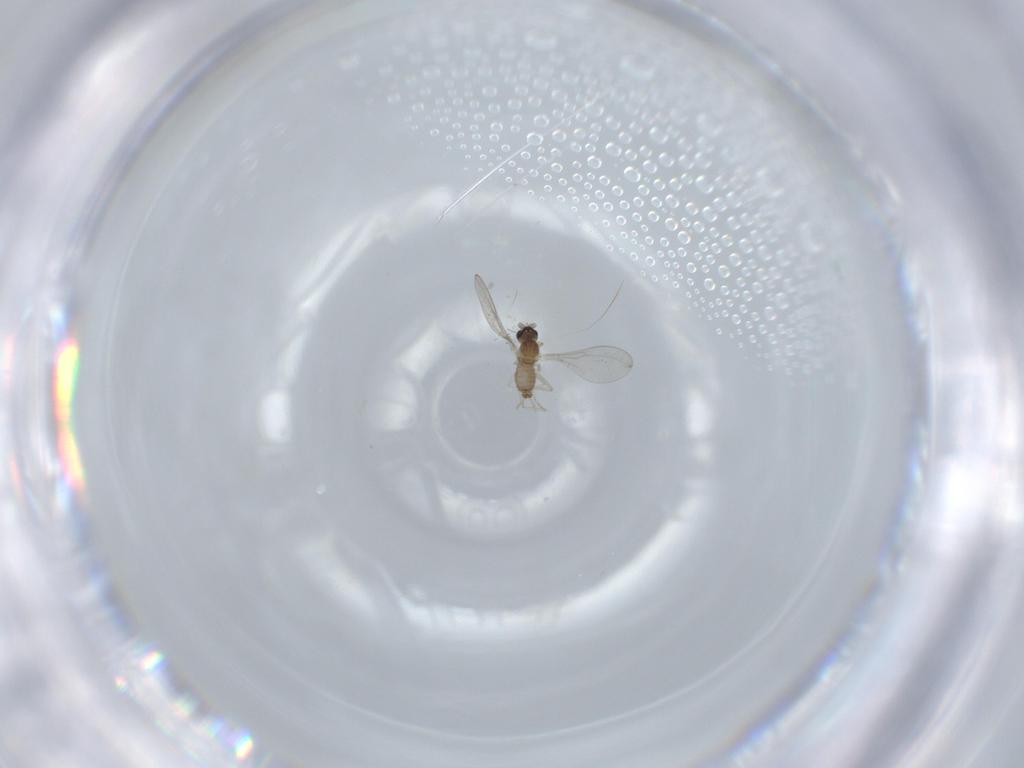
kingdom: Animalia
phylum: Arthropoda
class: Insecta
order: Diptera
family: Cecidomyiidae
